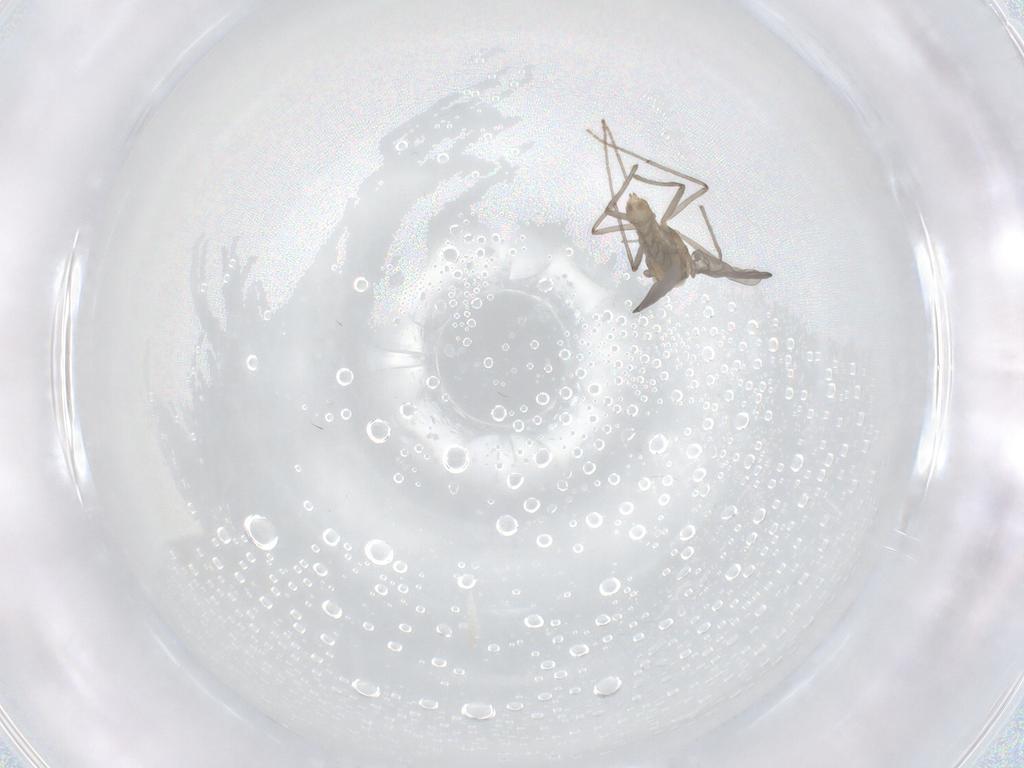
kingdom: Animalia
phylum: Arthropoda
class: Insecta
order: Diptera
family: Chironomidae
